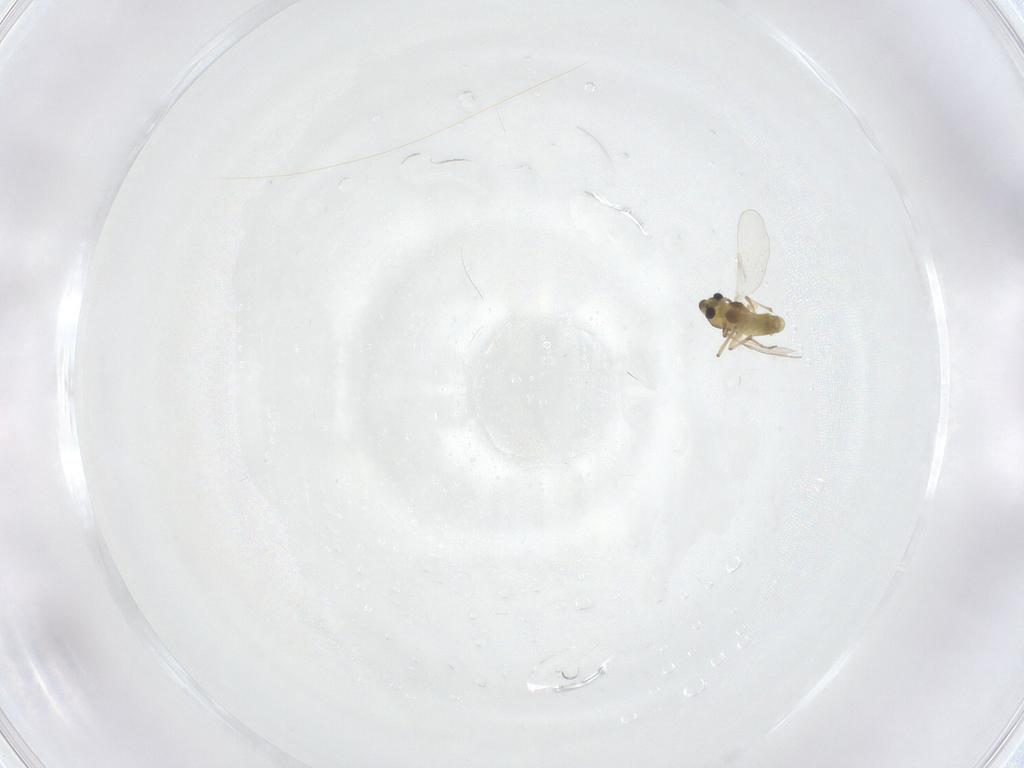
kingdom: Animalia
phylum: Arthropoda
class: Insecta
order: Diptera
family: Chironomidae
